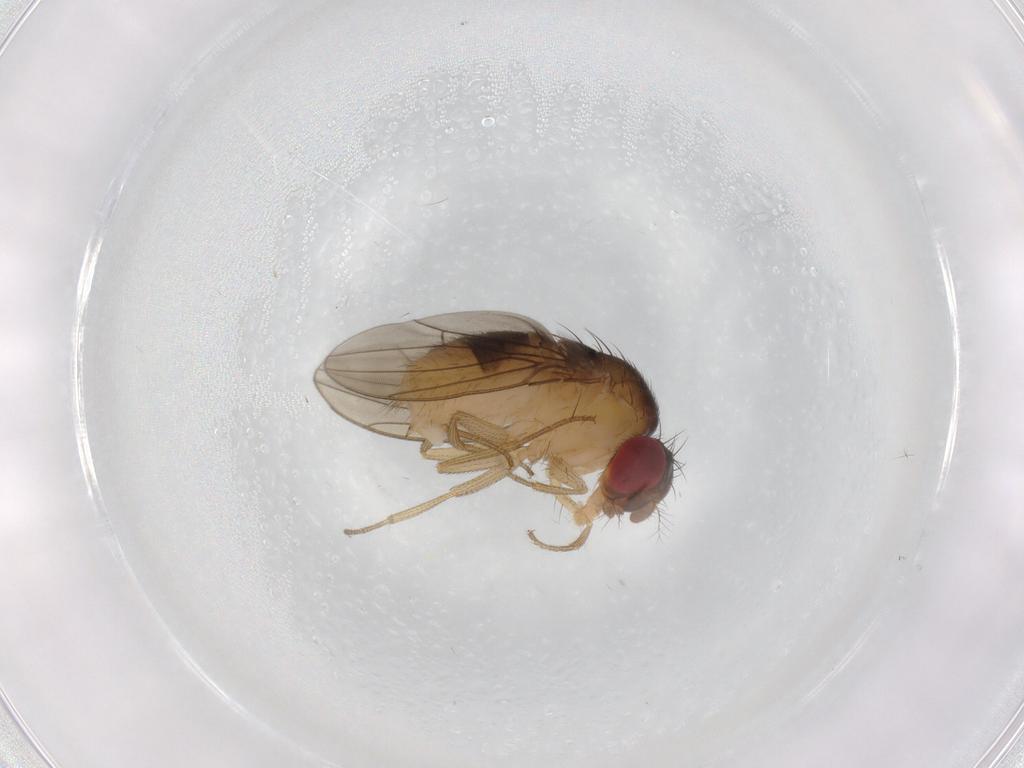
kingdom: Animalia
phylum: Arthropoda
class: Insecta
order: Diptera
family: Drosophilidae
